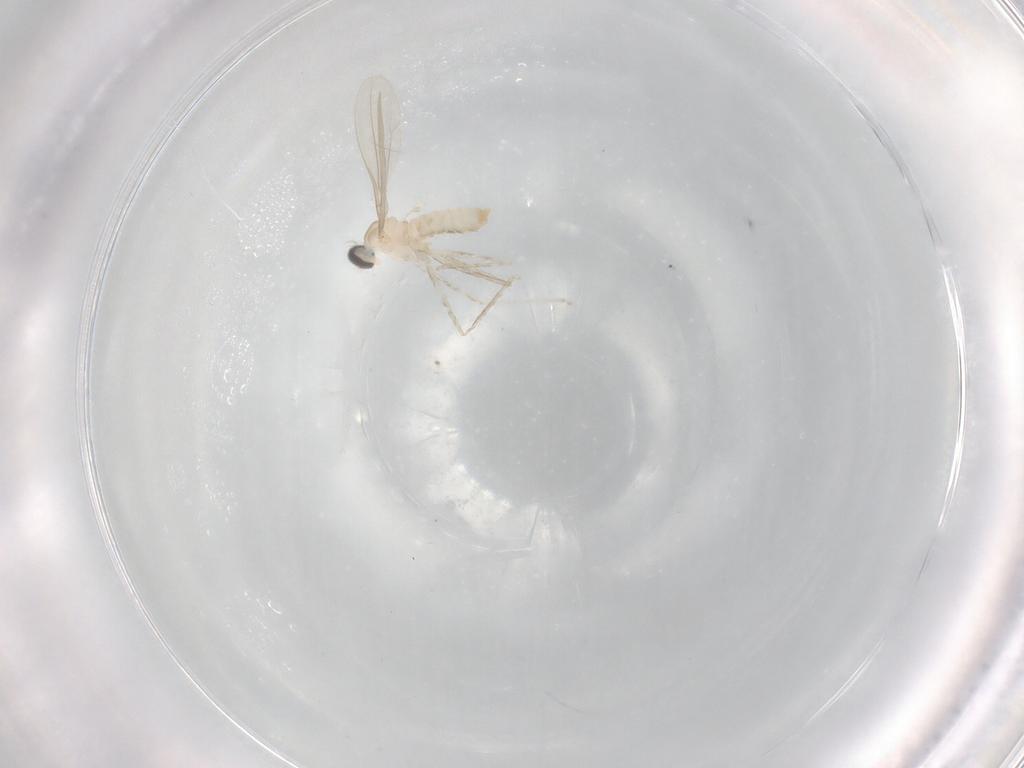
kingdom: Animalia
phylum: Arthropoda
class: Insecta
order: Diptera
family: Cecidomyiidae
